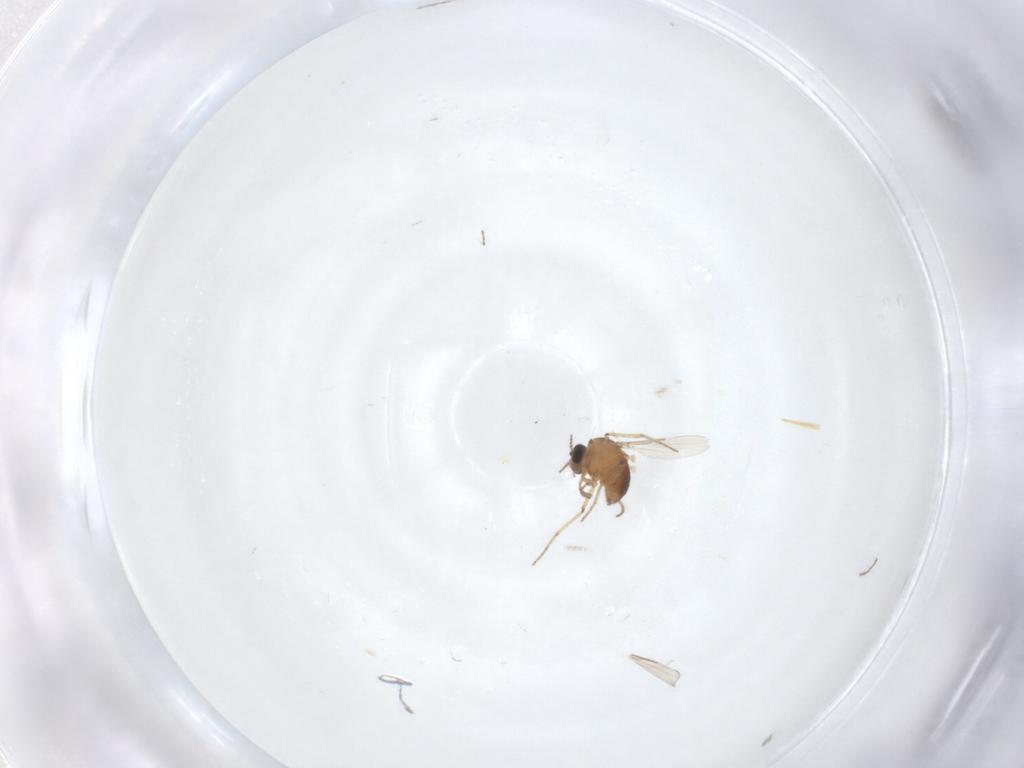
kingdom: Animalia
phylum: Arthropoda
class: Insecta
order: Diptera
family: Ceratopogonidae
